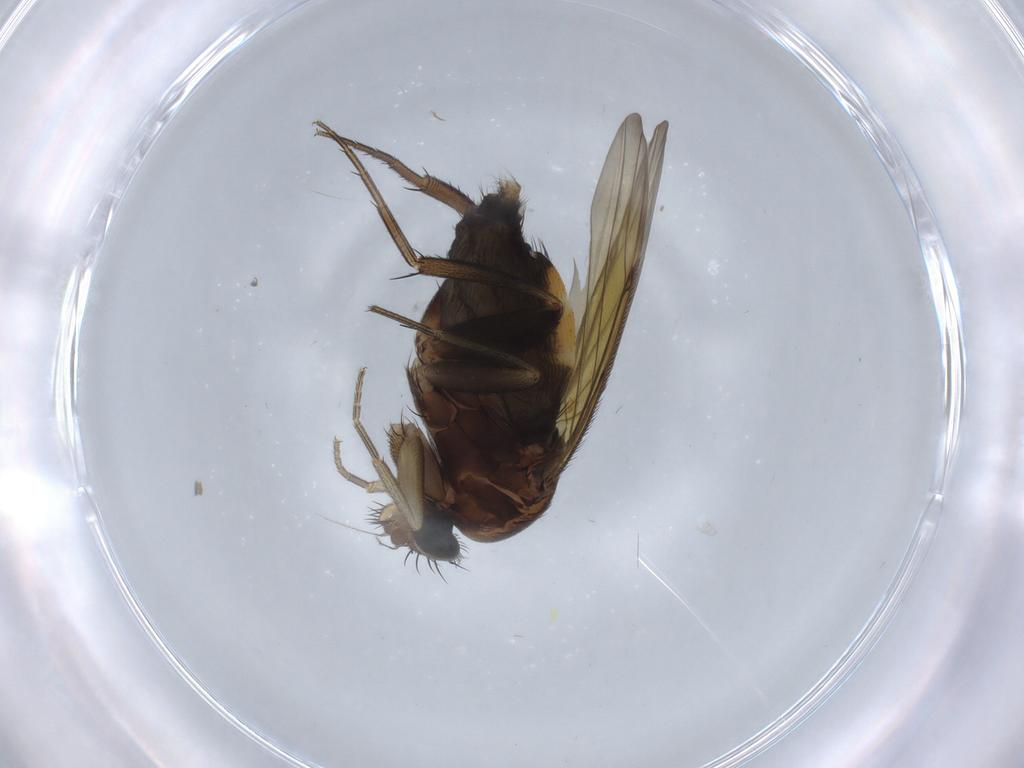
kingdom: Animalia
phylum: Arthropoda
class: Insecta
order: Diptera
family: Phoridae
